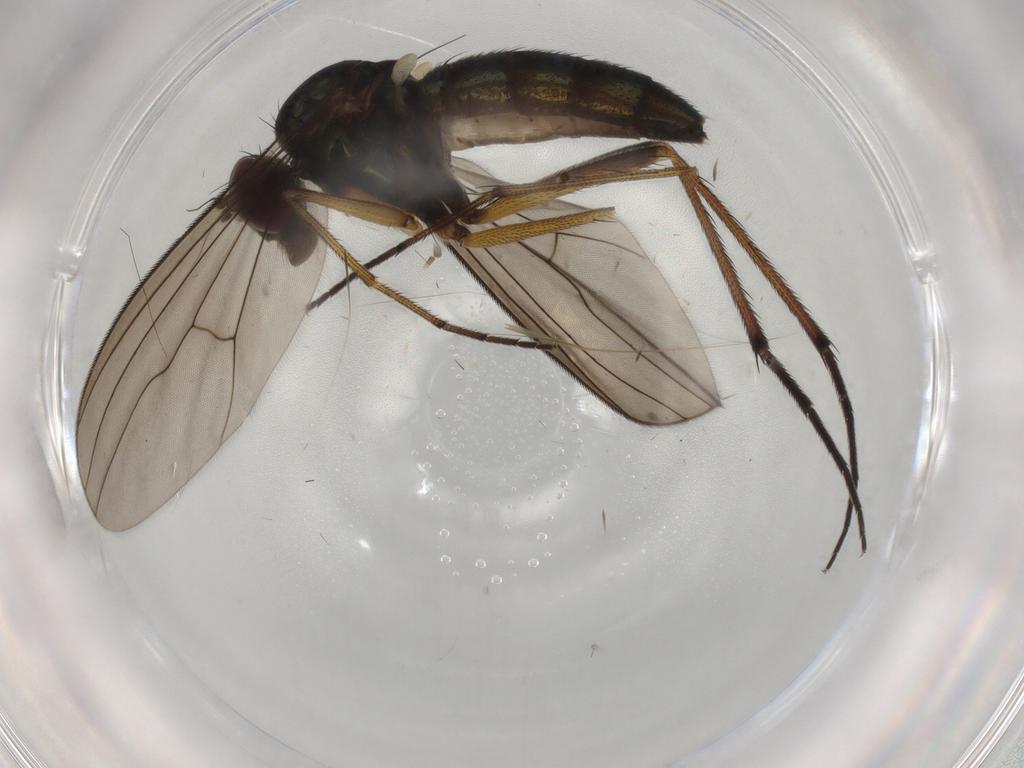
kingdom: Animalia
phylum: Arthropoda
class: Insecta
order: Diptera
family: Dolichopodidae
